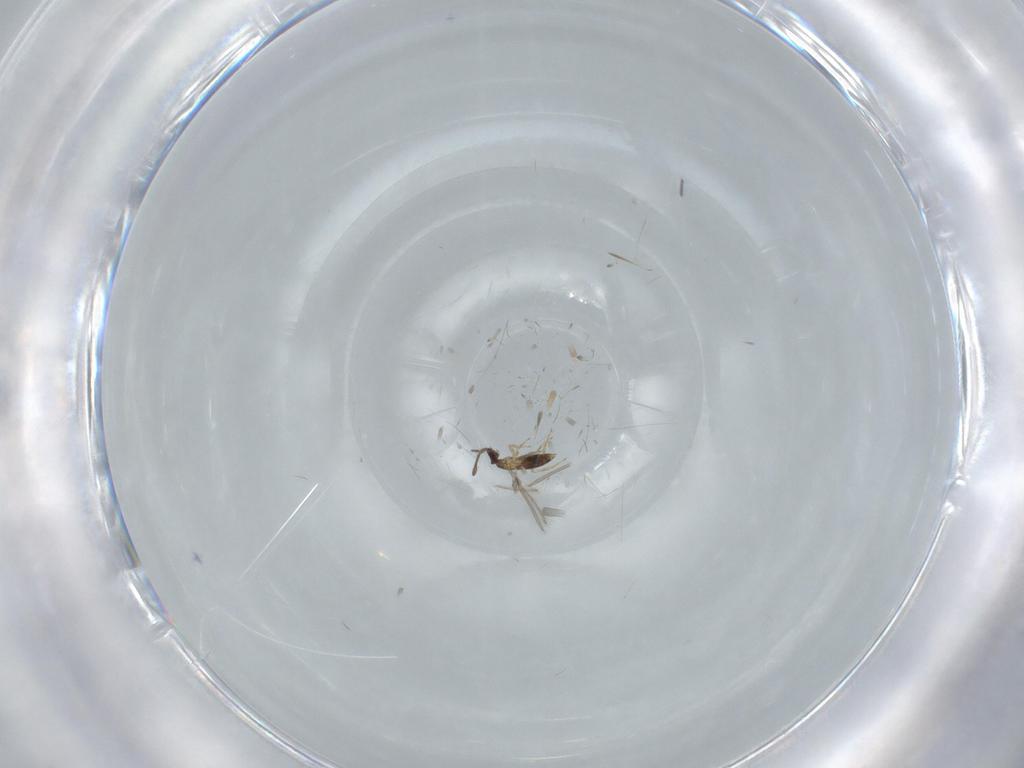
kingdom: Animalia
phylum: Arthropoda
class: Insecta
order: Hymenoptera
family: Mymaridae
